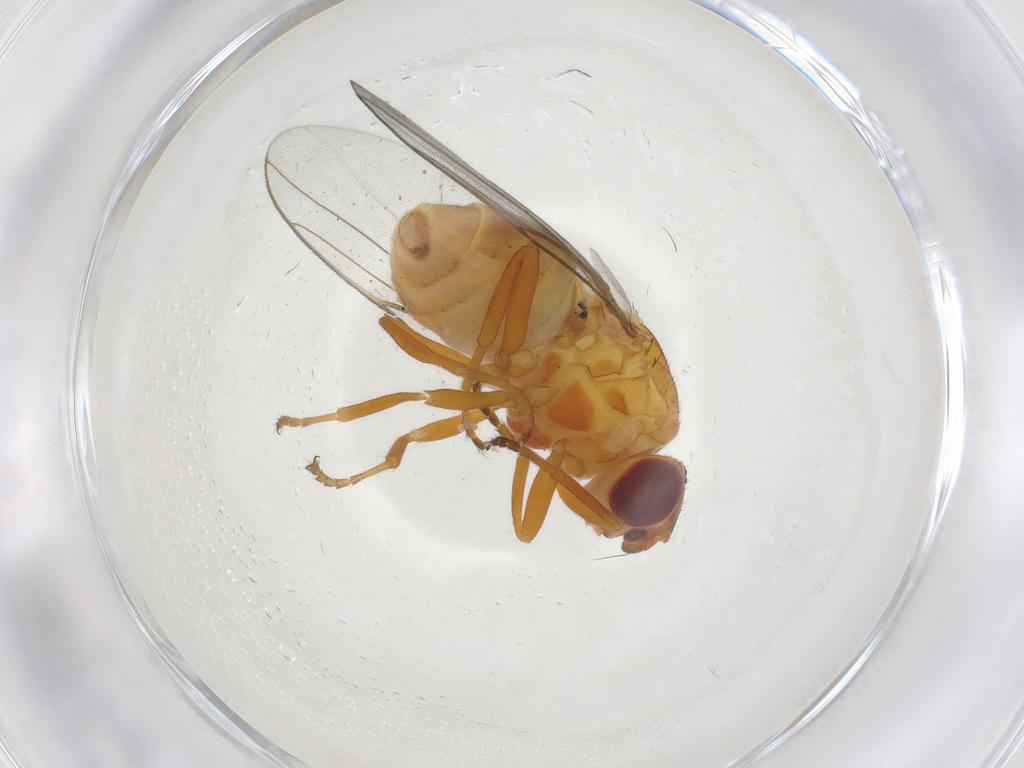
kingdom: Animalia
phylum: Arthropoda
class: Insecta
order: Diptera
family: Chloropidae
